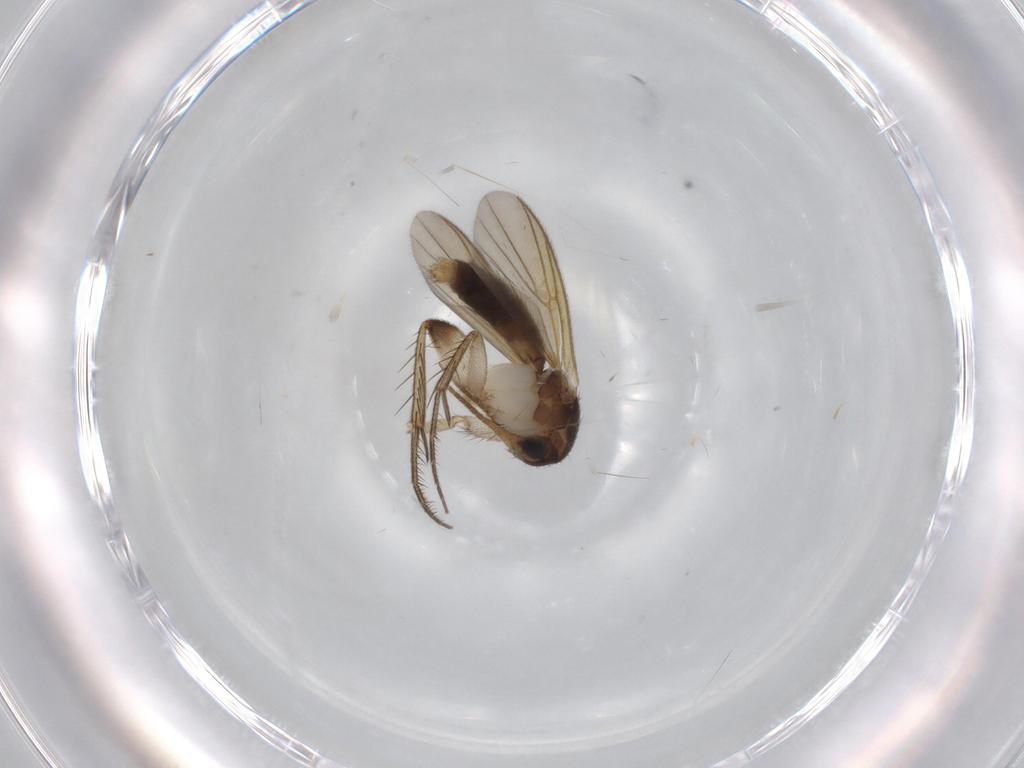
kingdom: Animalia
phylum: Arthropoda
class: Insecta
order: Diptera
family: Mycetophilidae
